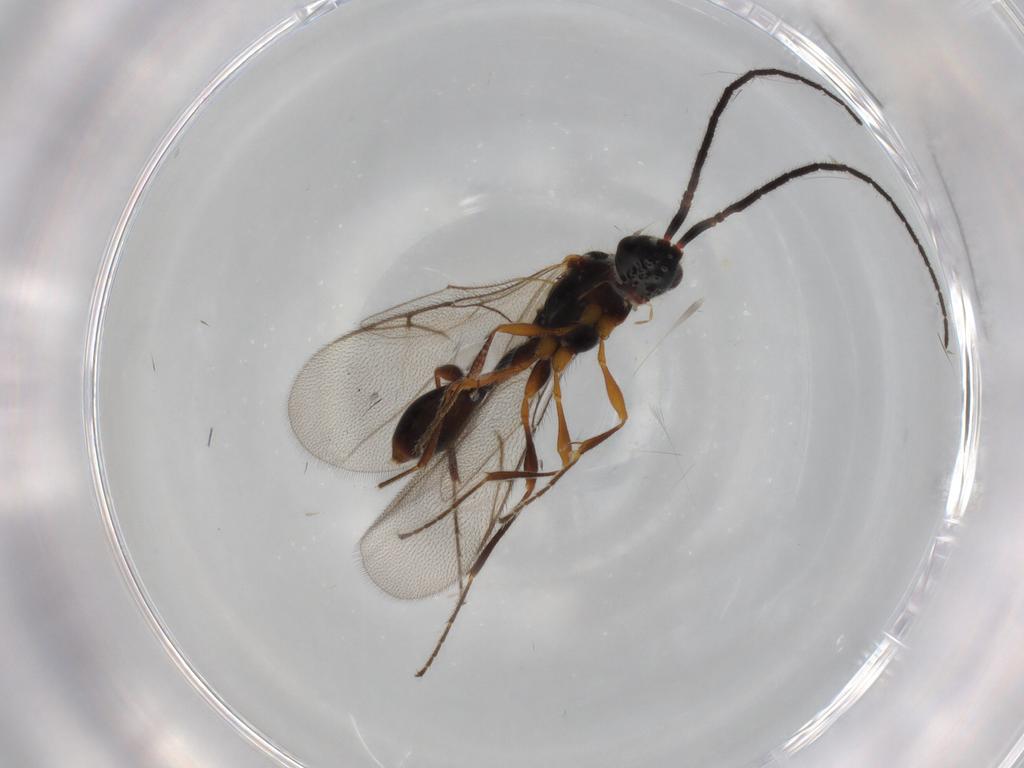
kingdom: Animalia
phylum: Arthropoda
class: Insecta
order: Hymenoptera
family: Diapriidae
